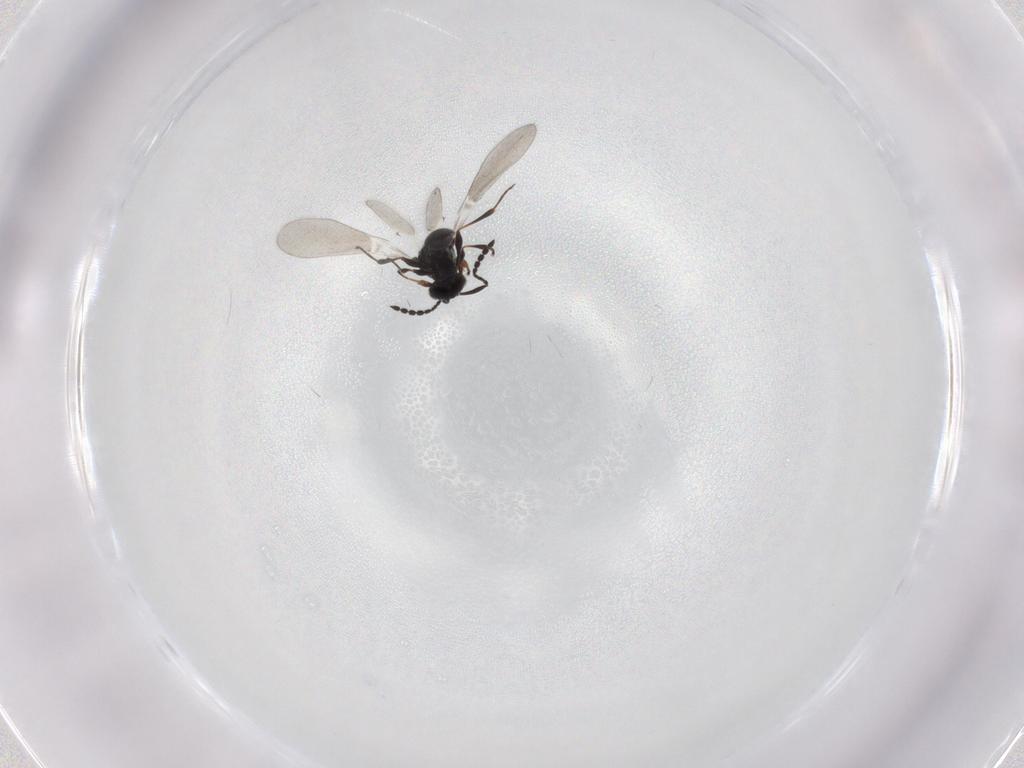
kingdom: Animalia
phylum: Arthropoda
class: Insecta
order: Hymenoptera
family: Platygastridae
